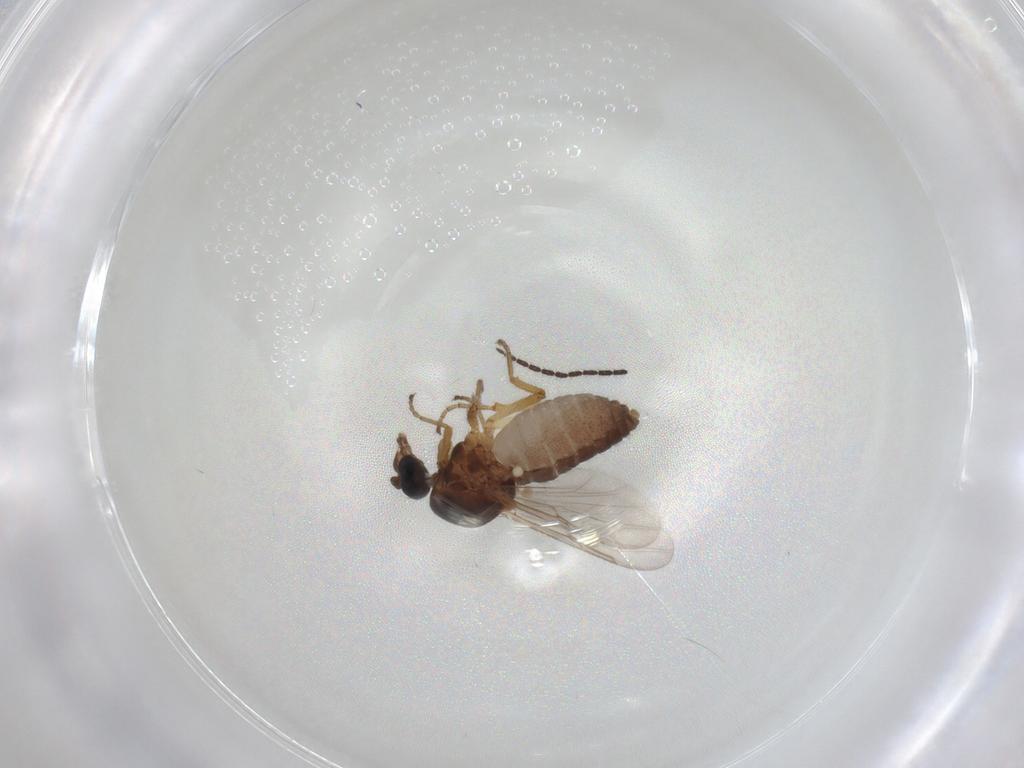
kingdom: Animalia
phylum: Arthropoda
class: Insecta
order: Diptera
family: Chironomidae
